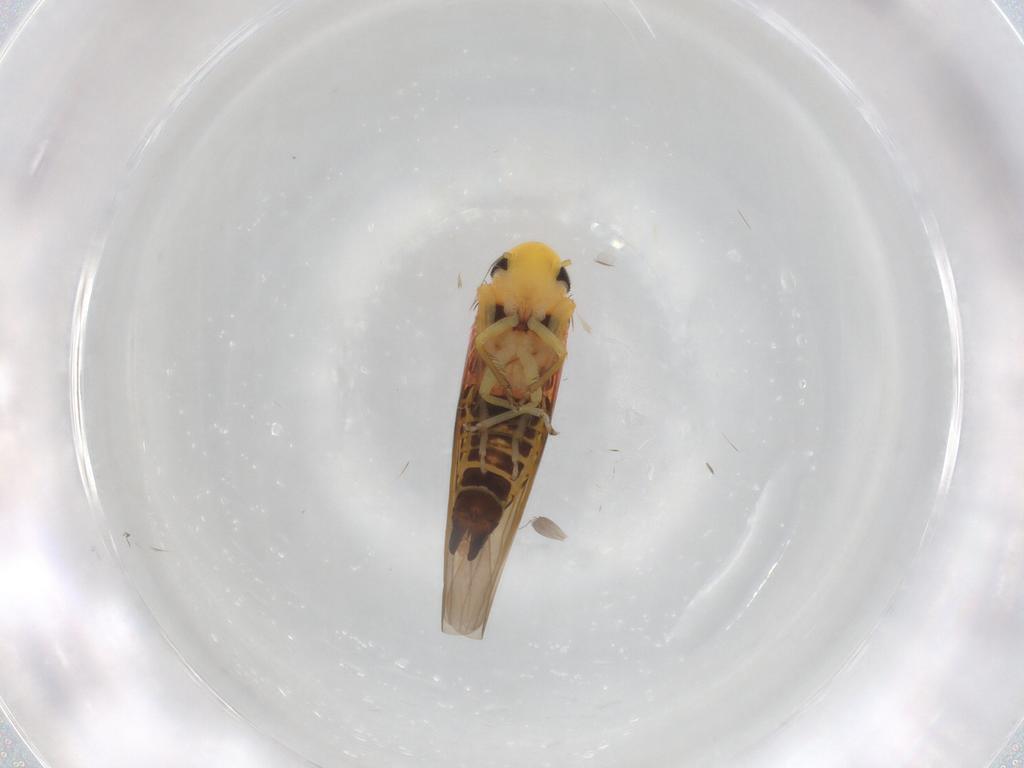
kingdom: Animalia
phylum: Arthropoda
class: Insecta
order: Hemiptera
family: Cicadellidae
